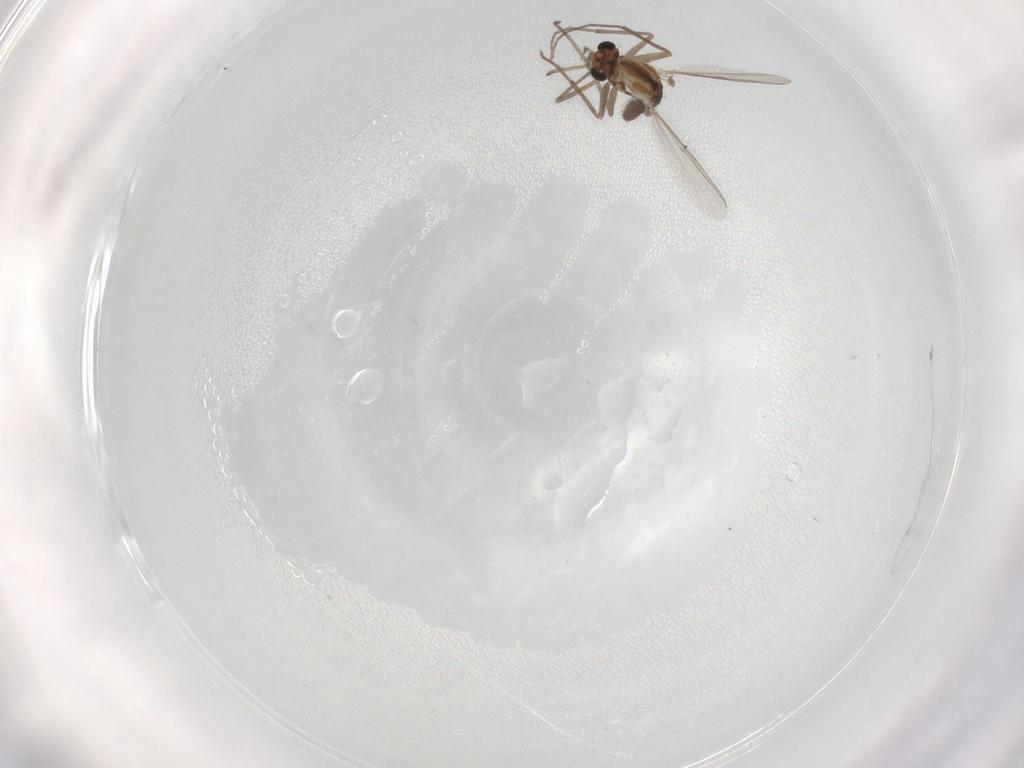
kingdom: Animalia
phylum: Arthropoda
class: Insecta
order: Diptera
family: Chironomidae
